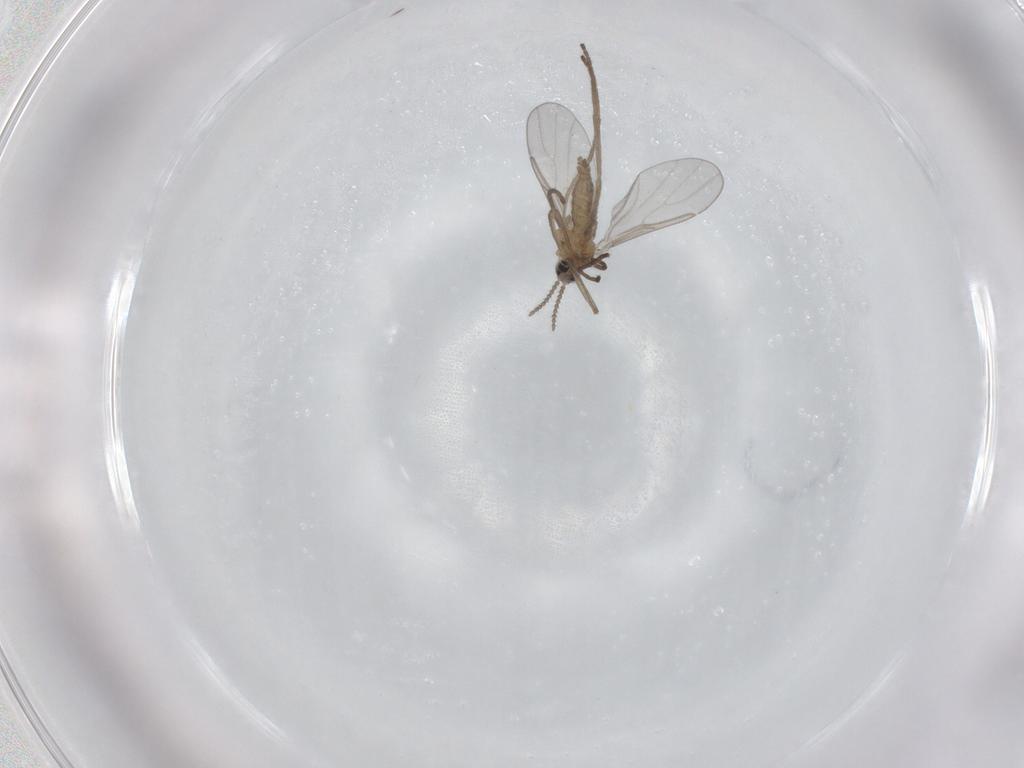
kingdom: Animalia
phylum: Arthropoda
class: Insecta
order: Diptera
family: Cecidomyiidae
